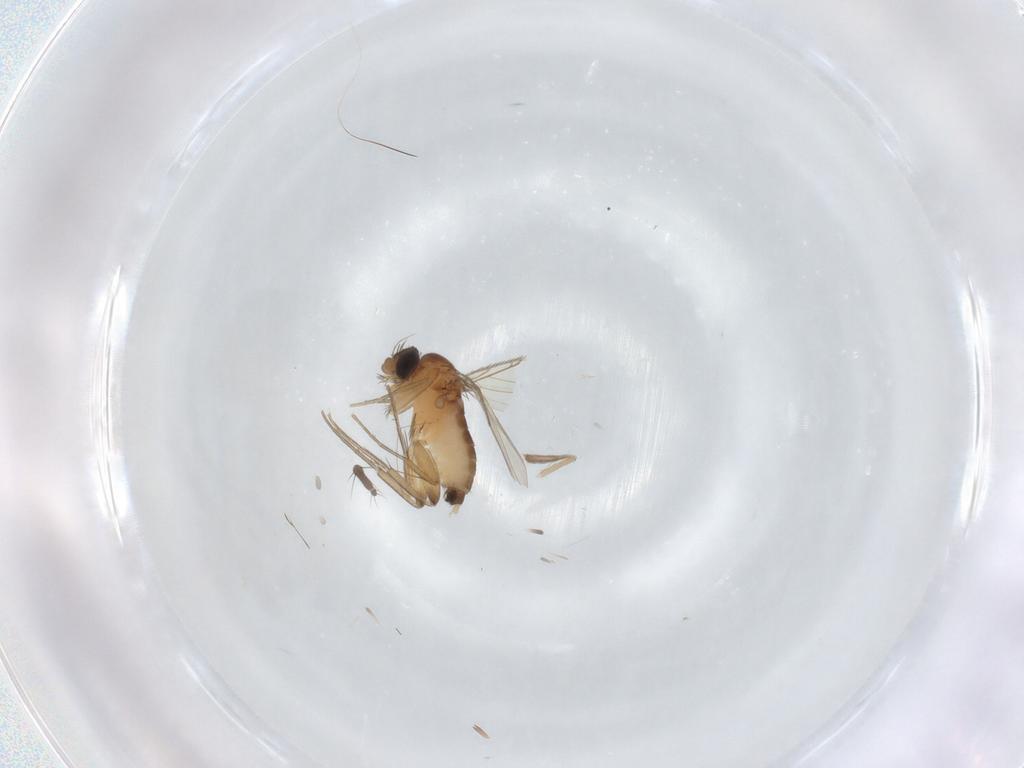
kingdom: Animalia
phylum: Arthropoda
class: Insecta
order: Diptera
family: Tipulidae
